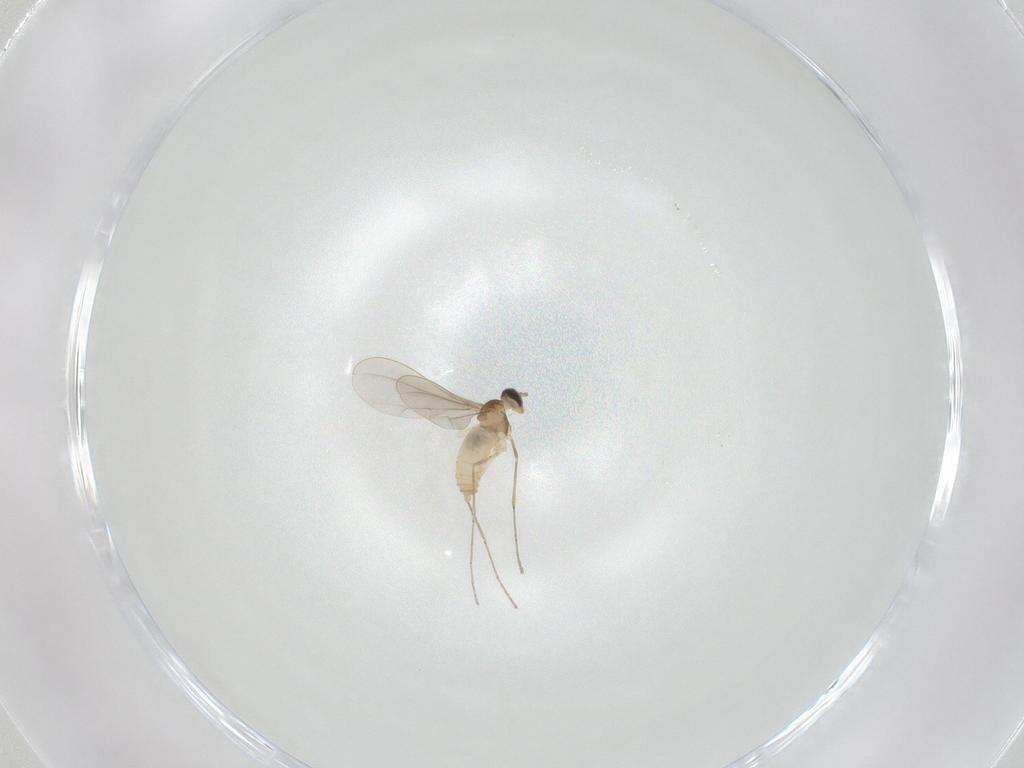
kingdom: Animalia
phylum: Arthropoda
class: Insecta
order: Diptera
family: Cecidomyiidae
